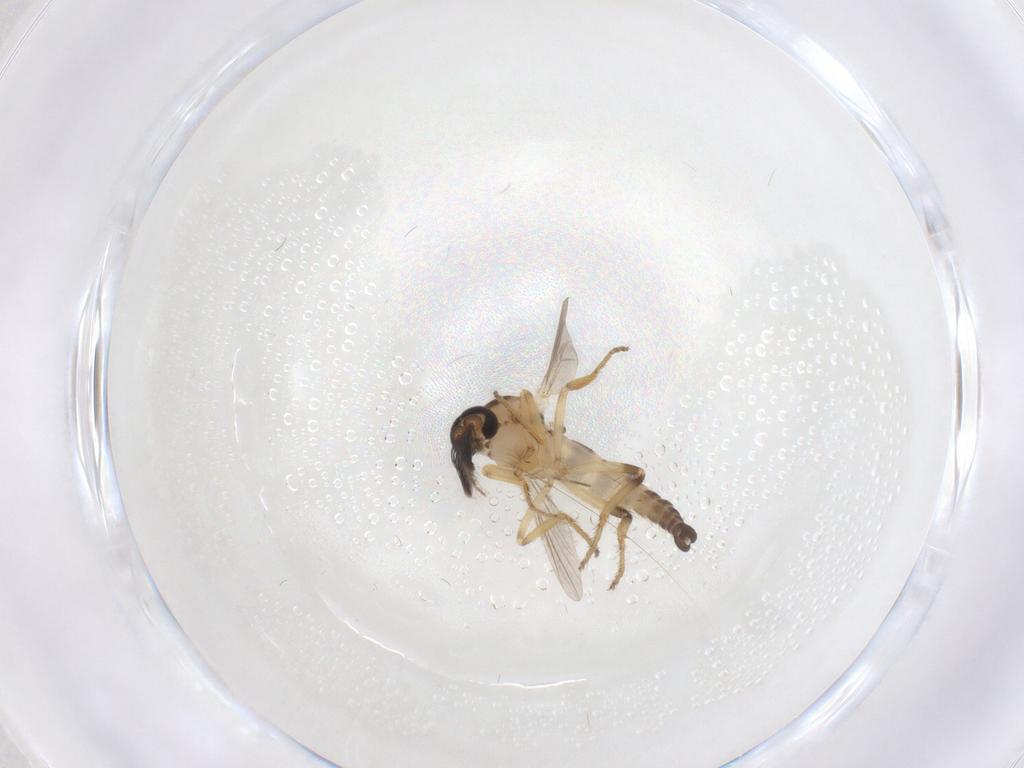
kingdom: Animalia
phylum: Arthropoda
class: Insecta
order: Diptera
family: Ceratopogonidae
